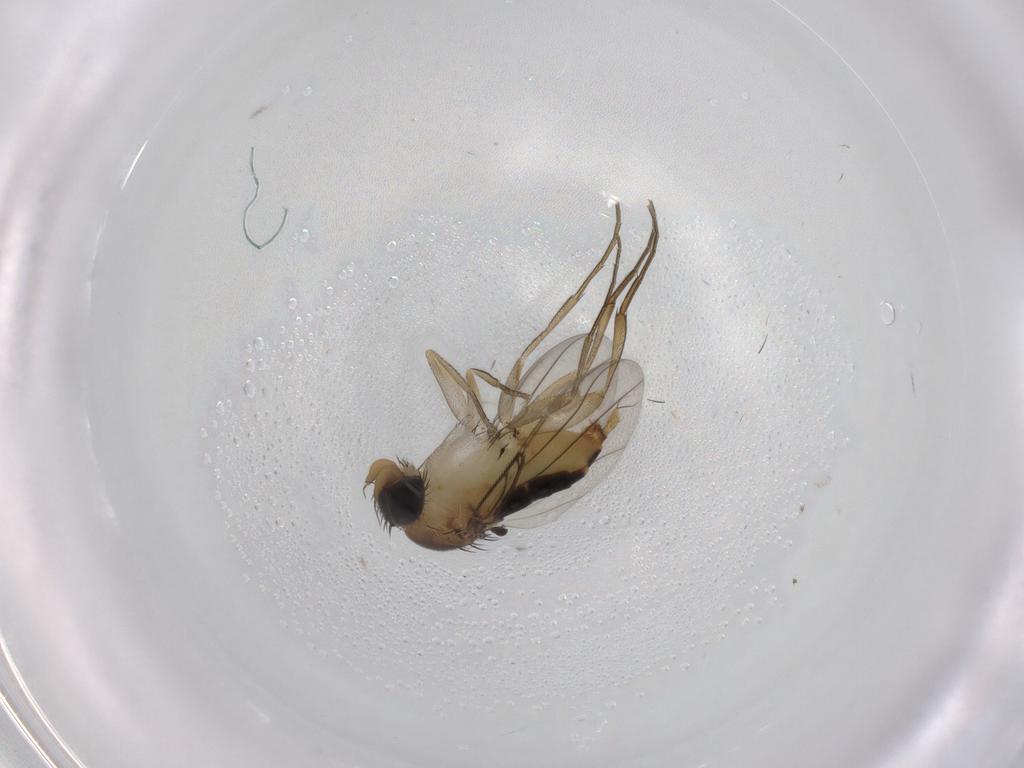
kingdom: Animalia
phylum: Arthropoda
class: Insecta
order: Diptera
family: Phoridae
